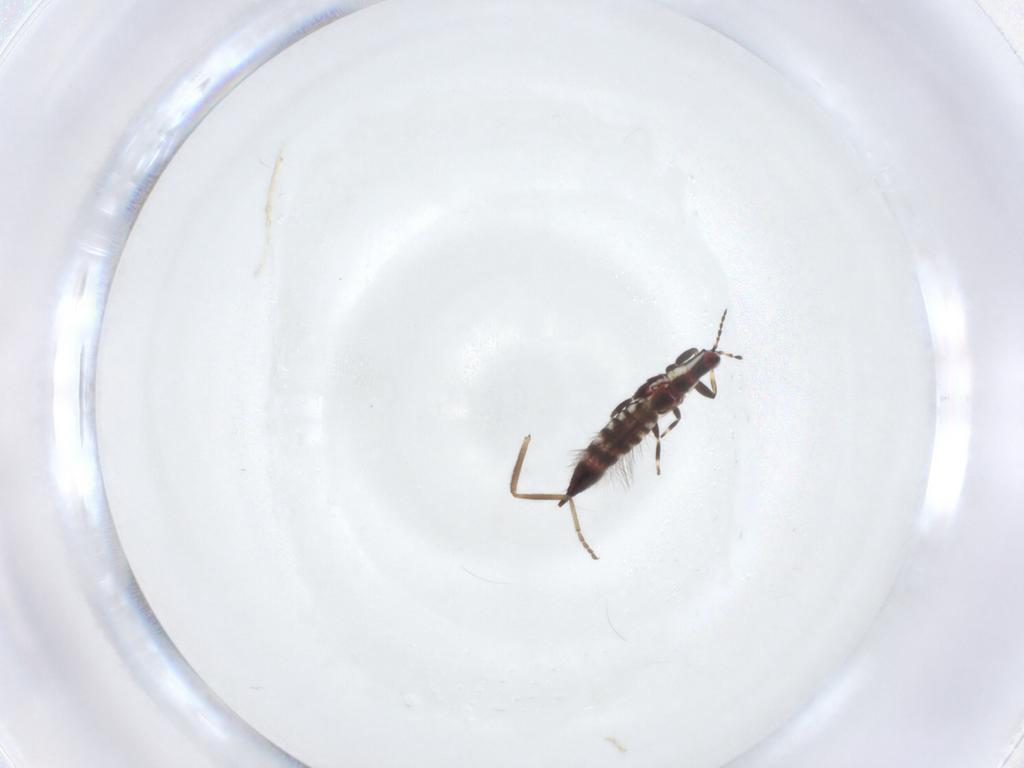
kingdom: Animalia
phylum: Arthropoda
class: Insecta
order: Thysanoptera
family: Phlaeothripidae
